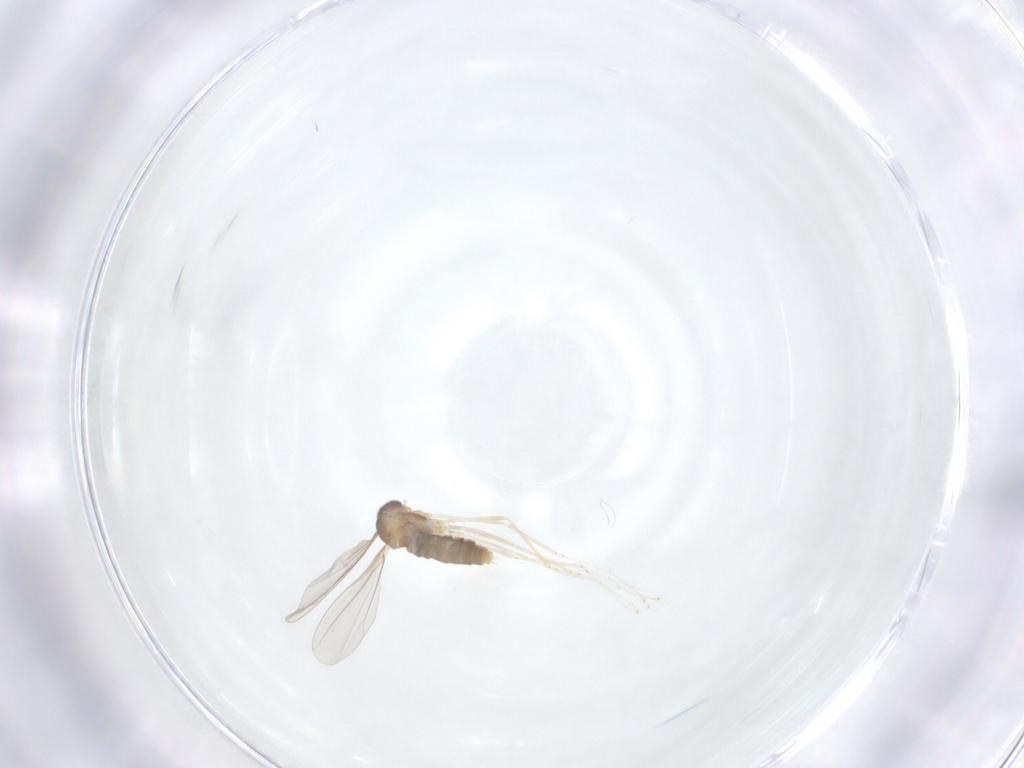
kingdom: Animalia
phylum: Arthropoda
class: Insecta
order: Diptera
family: Cecidomyiidae
